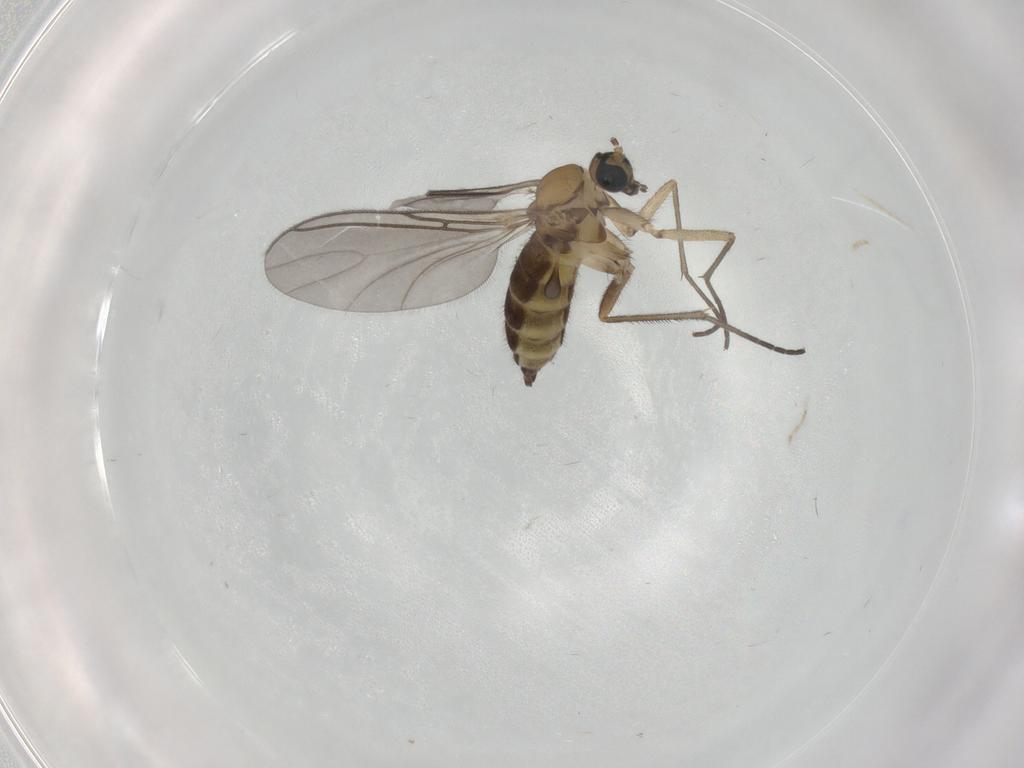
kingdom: Animalia
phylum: Arthropoda
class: Insecta
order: Diptera
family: Sciaridae
